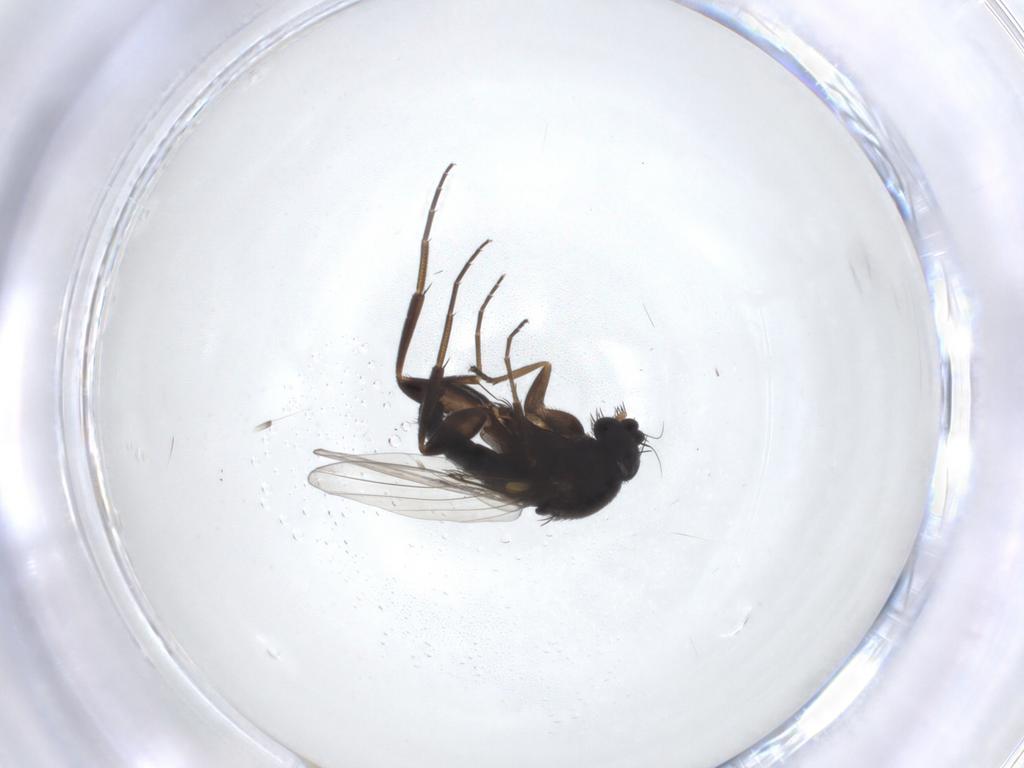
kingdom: Animalia
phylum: Arthropoda
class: Insecta
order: Diptera
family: Phoridae
